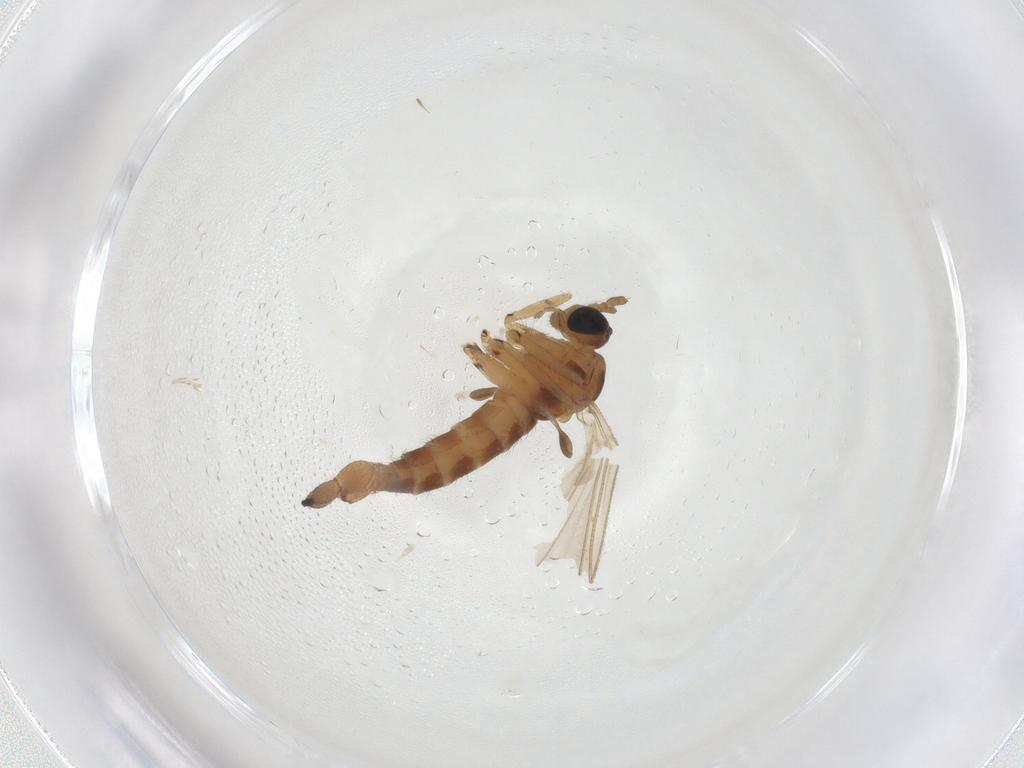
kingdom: Animalia
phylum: Arthropoda
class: Insecta
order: Diptera
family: Sciaridae
